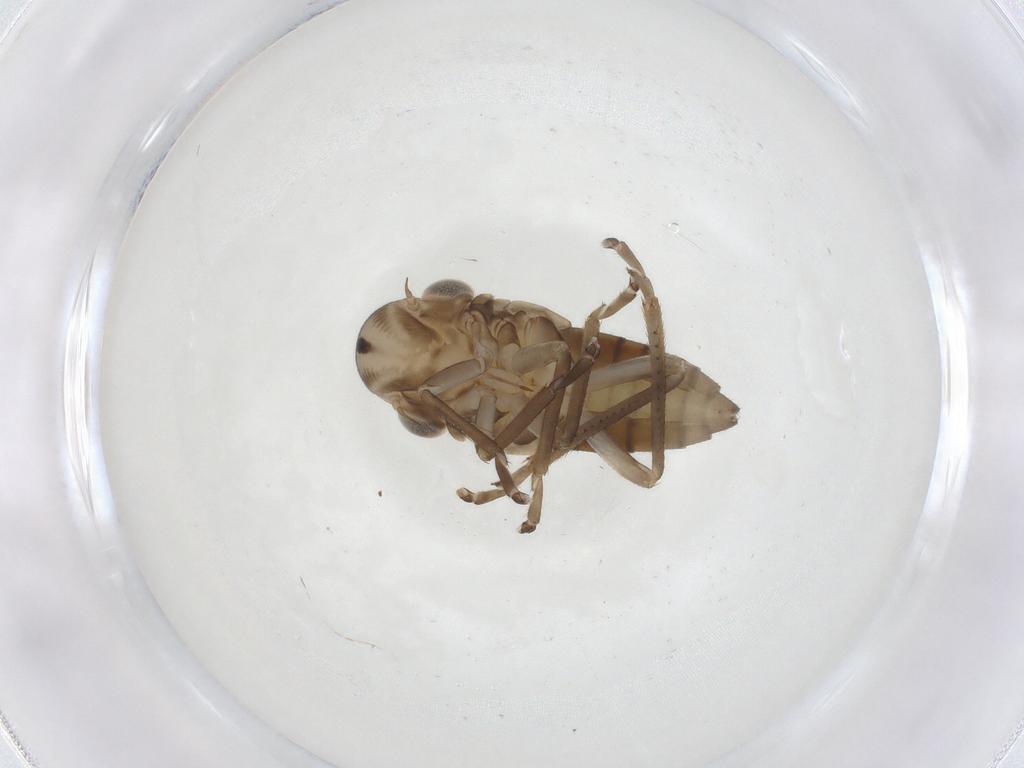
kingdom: Animalia
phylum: Arthropoda
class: Insecta
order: Hemiptera
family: Cicadellidae
